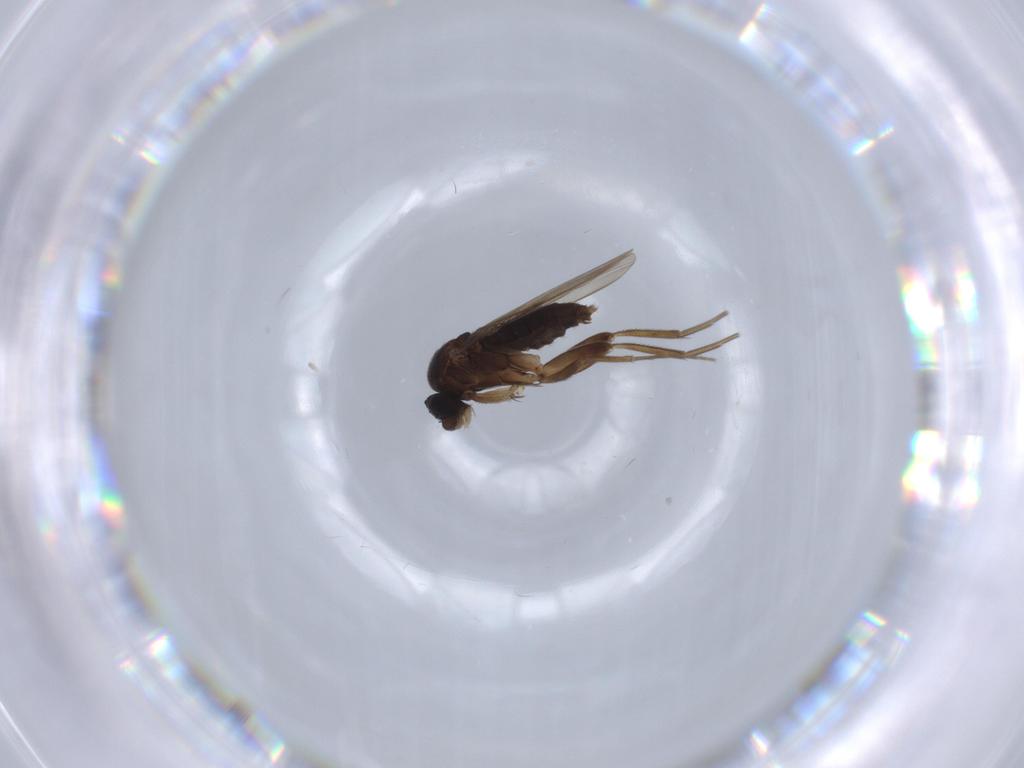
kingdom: Animalia
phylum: Arthropoda
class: Insecta
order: Diptera
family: Phoridae
